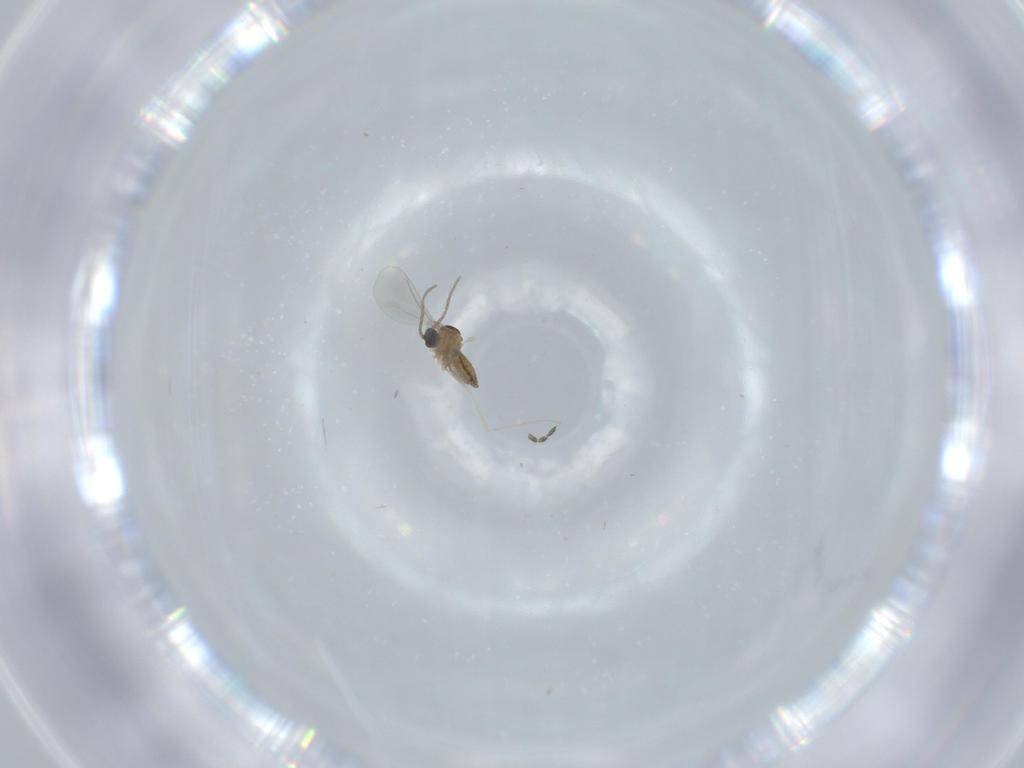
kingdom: Animalia
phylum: Arthropoda
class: Insecta
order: Diptera
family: Cecidomyiidae
